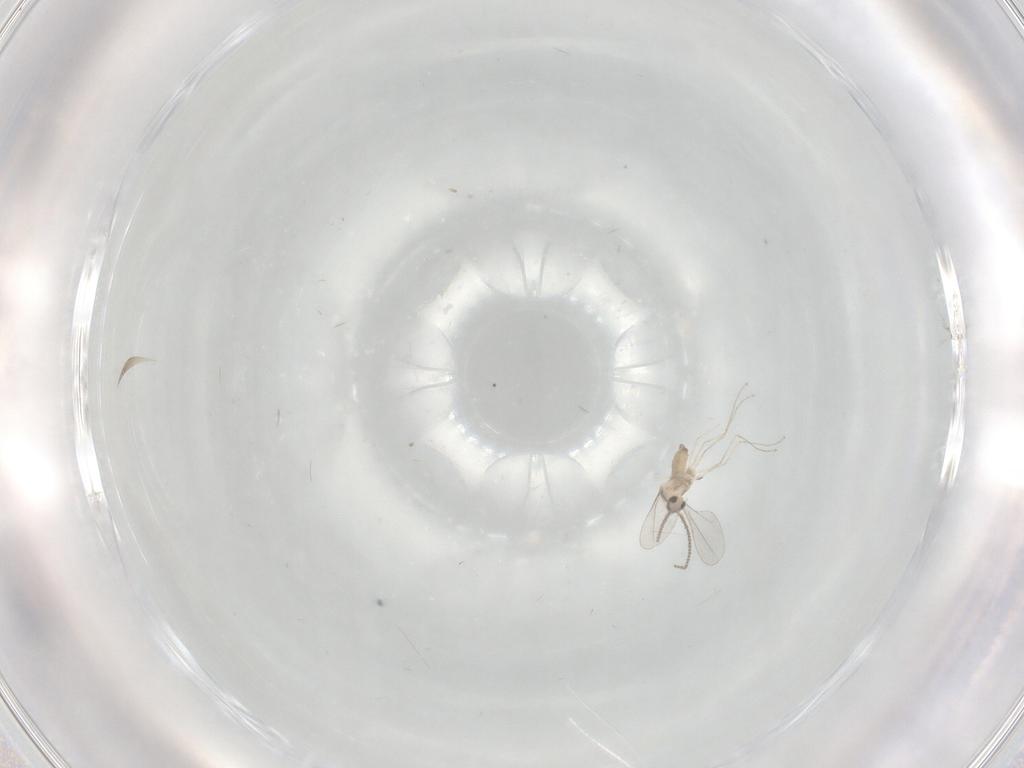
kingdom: Animalia
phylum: Arthropoda
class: Insecta
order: Diptera
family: Cecidomyiidae
